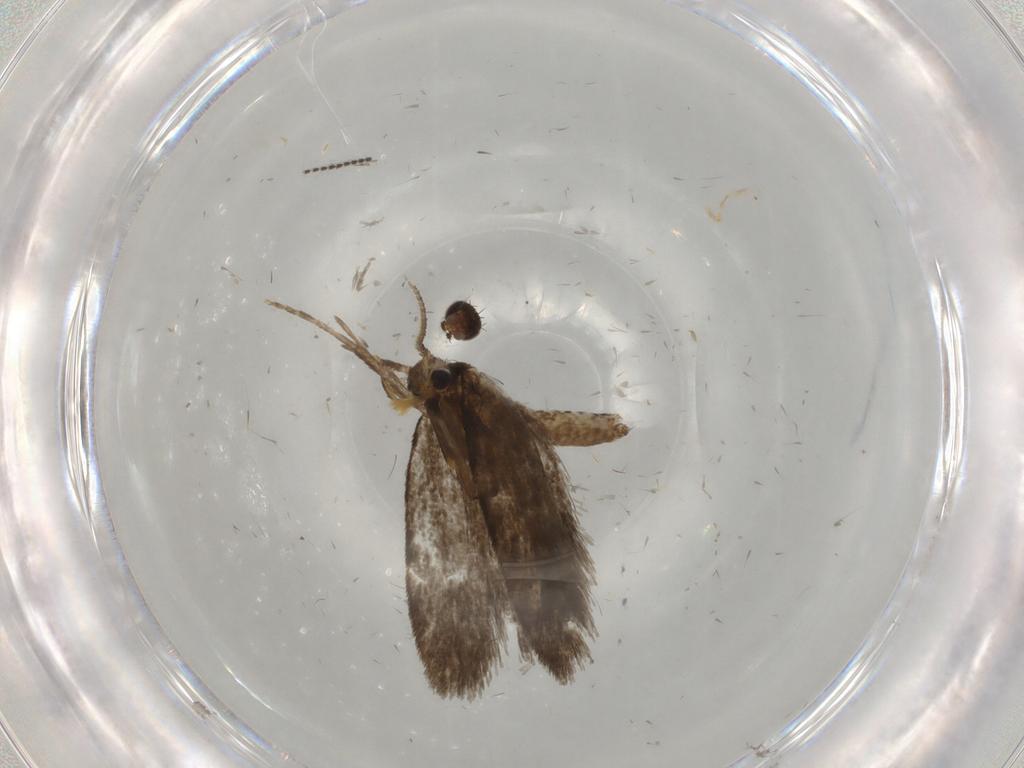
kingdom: Animalia
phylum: Arthropoda
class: Insecta
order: Lepidoptera
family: Psychidae
